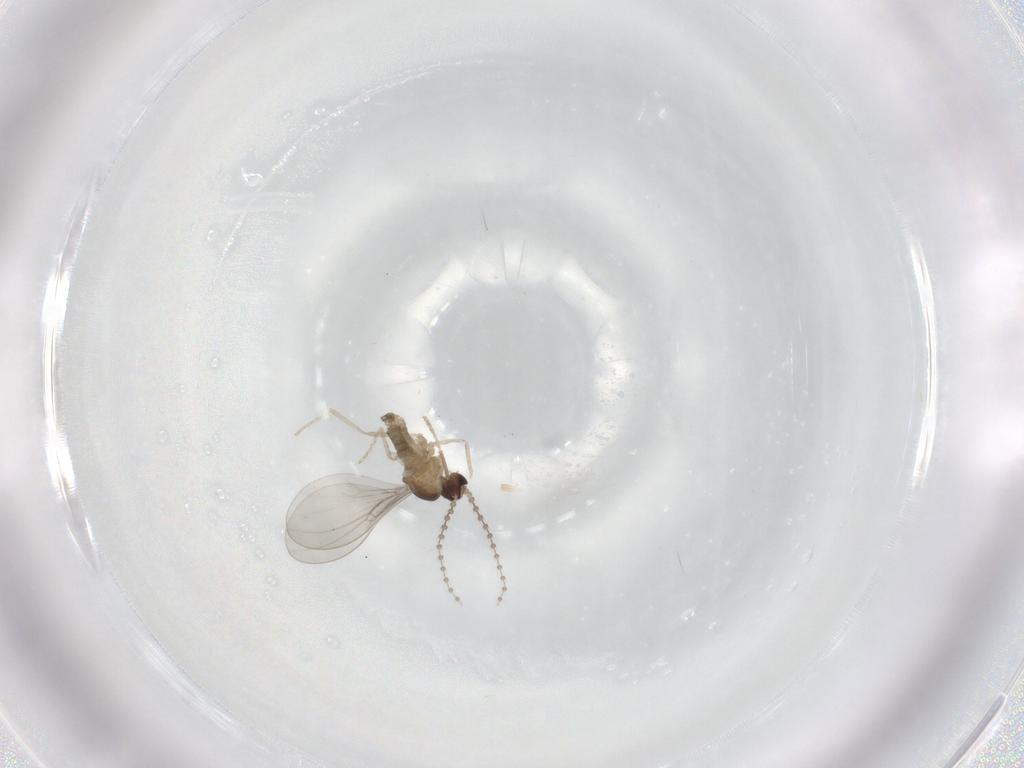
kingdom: Animalia
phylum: Arthropoda
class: Insecta
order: Diptera
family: Cecidomyiidae
